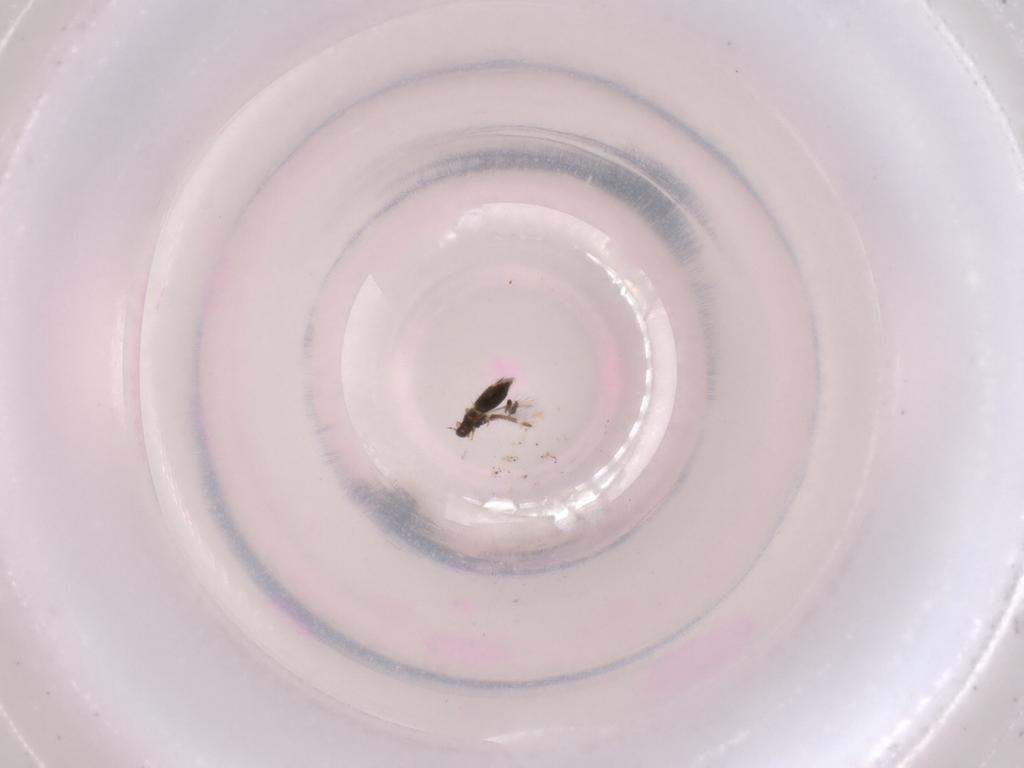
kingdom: Animalia
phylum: Arthropoda
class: Insecta
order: Thysanoptera
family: Thripidae
